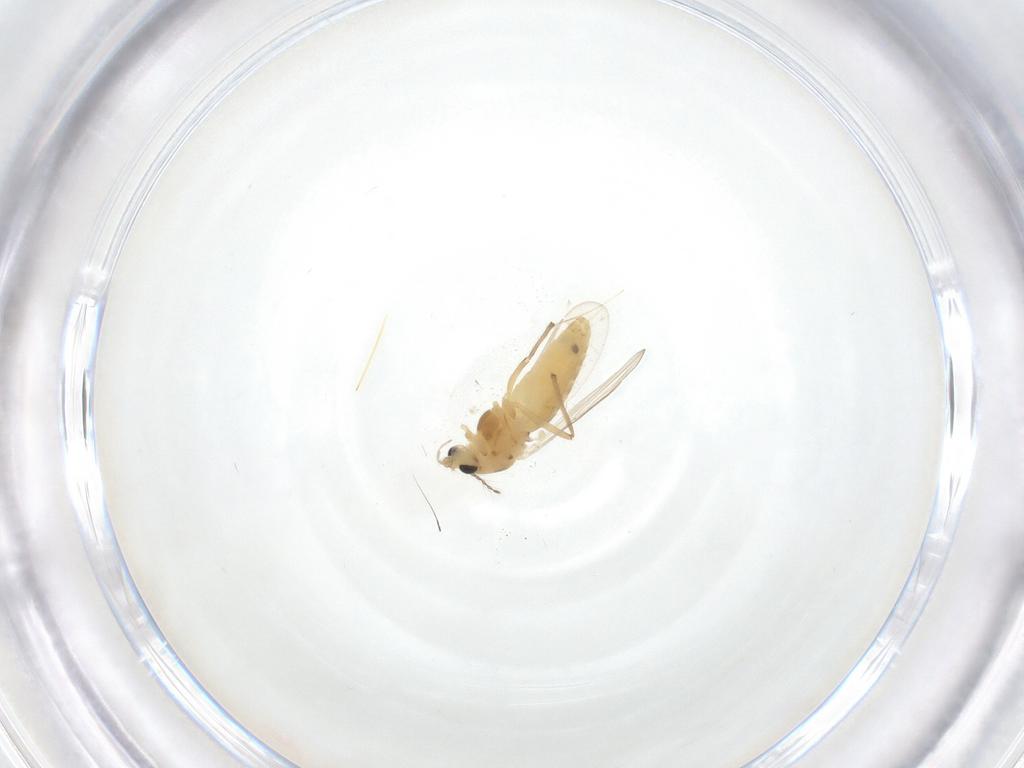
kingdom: Animalia
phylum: Arthropoda
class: Insecta
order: Diptera
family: Chironomidae
